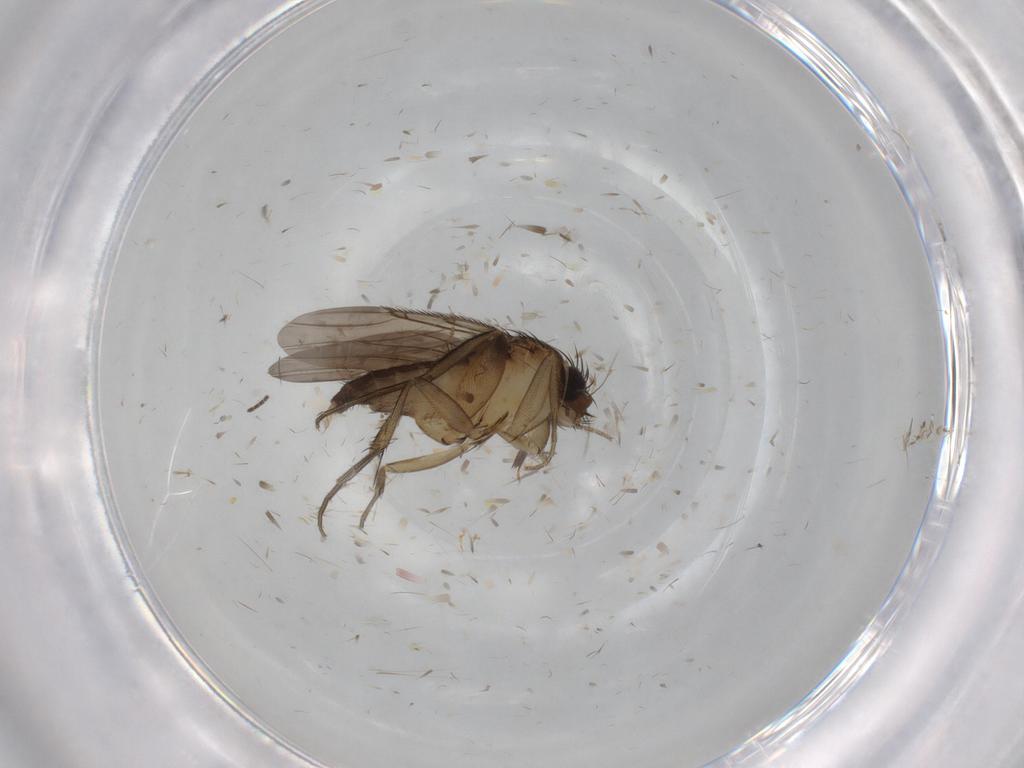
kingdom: Animalia
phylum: Arthropoda
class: Insecta
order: Diptera
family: Phoridae
